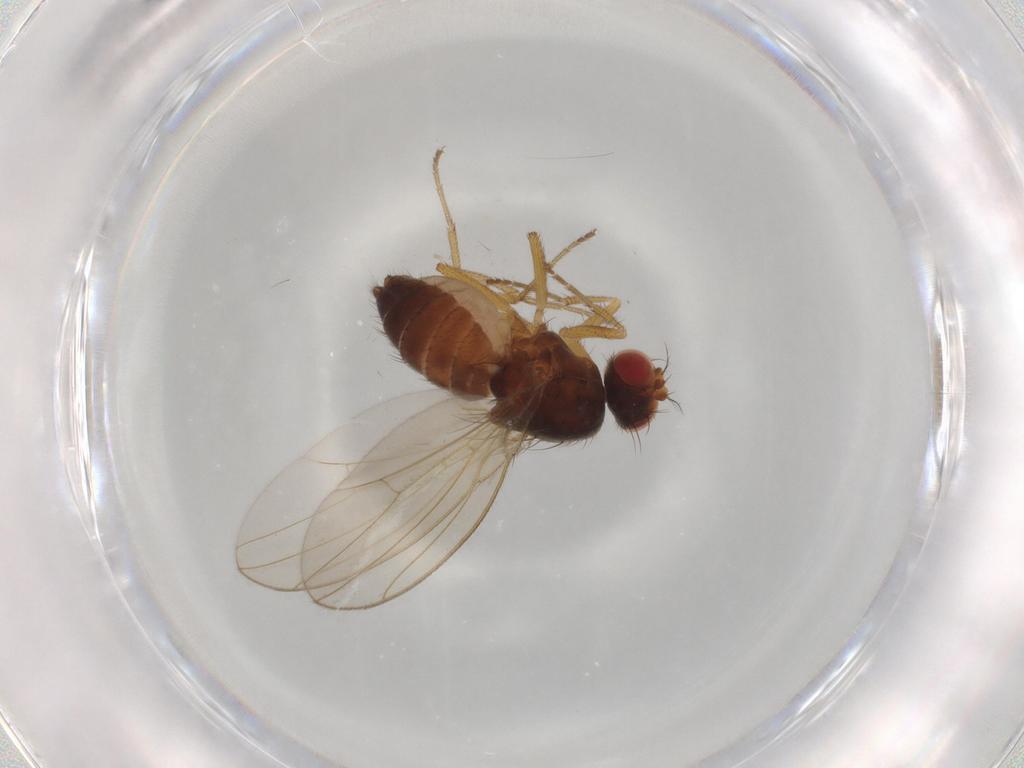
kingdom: Animalia
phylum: Arthropoda
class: Insecta
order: Diptera
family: Drosophilidae
